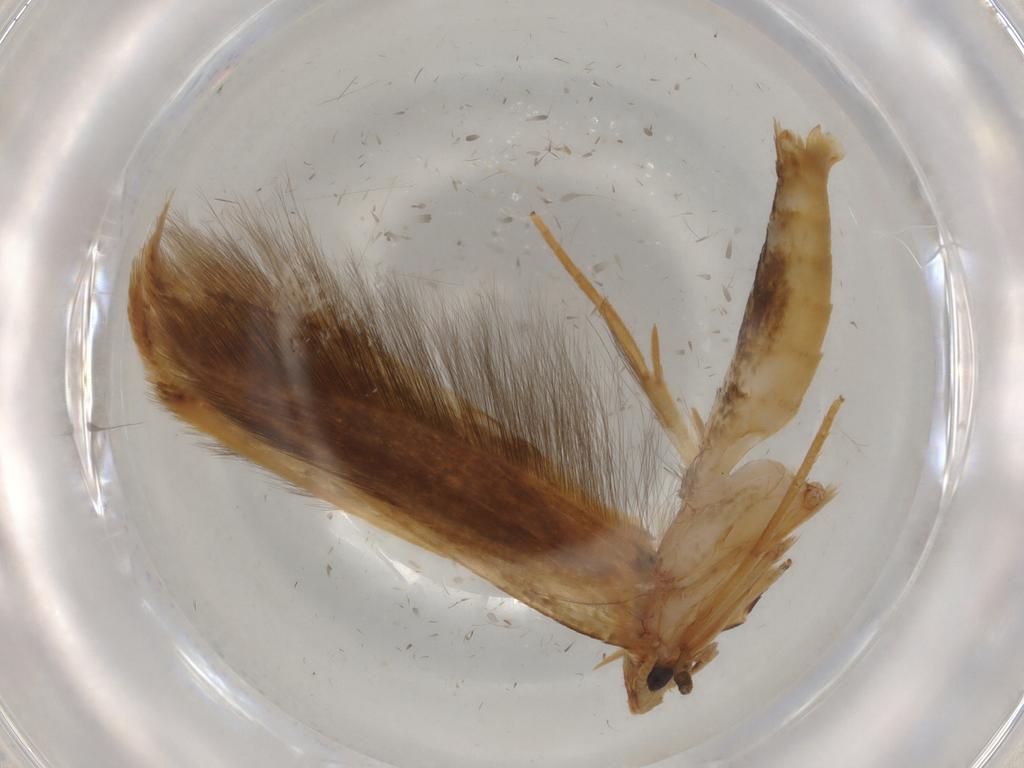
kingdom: Animalia
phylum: Arthropoda
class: Insecta
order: Lepidoptera
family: Tineidae
